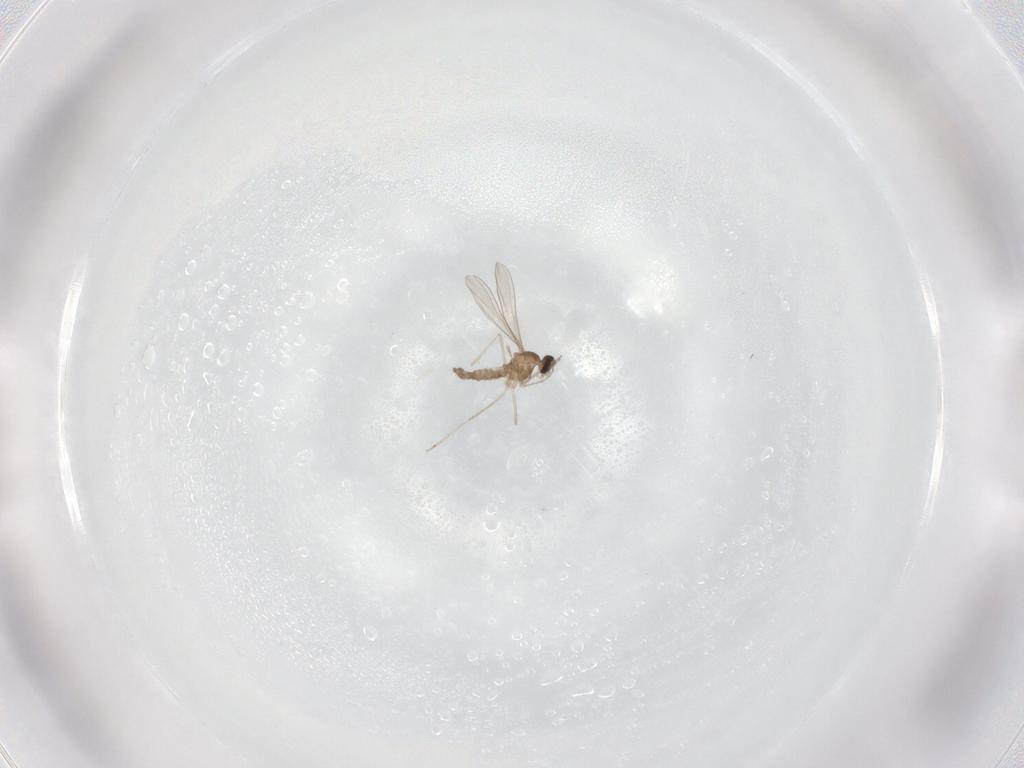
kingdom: Animalia
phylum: Arthropoda
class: Insecta
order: Diptera
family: Cecidomyiidae
